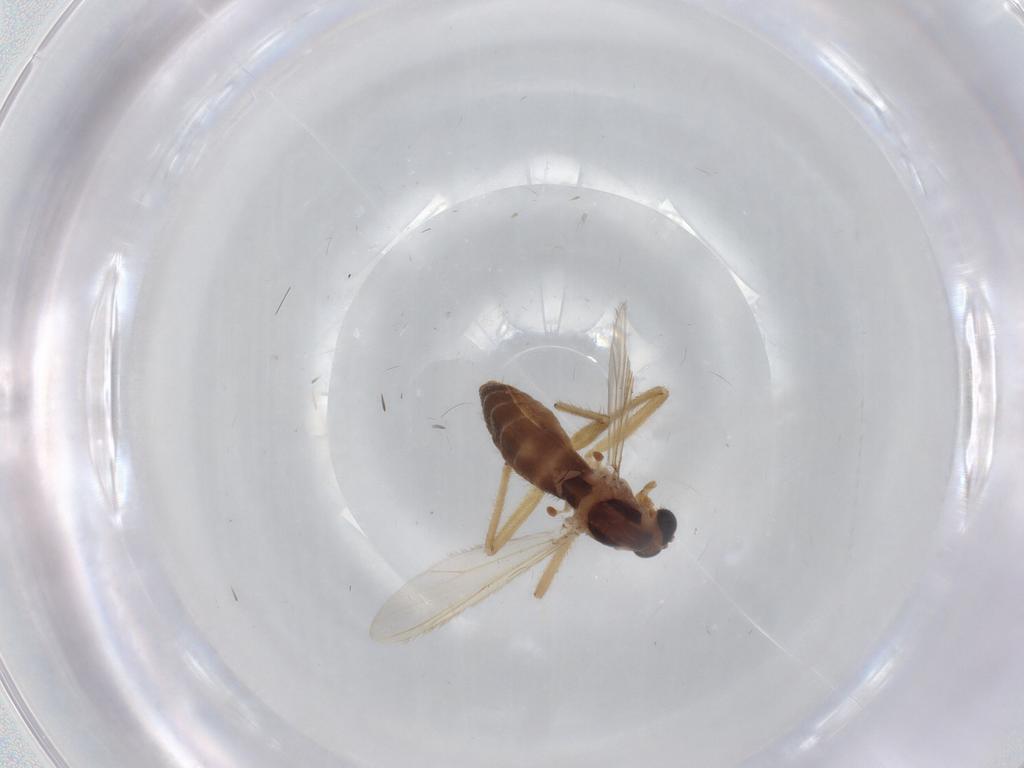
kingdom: Animalia
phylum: Arthropoda
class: Insecta
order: Diptera
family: Chironomidae
